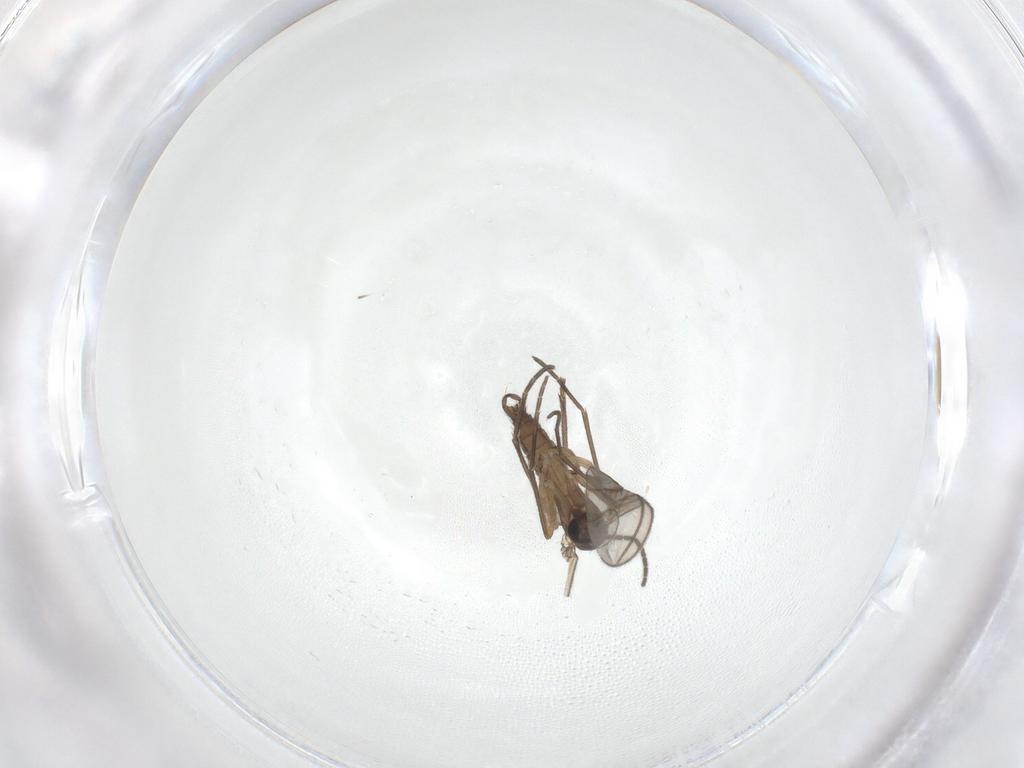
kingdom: Animalia
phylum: Arthropoda
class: Insecta
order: Diptera
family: Sciaridae
